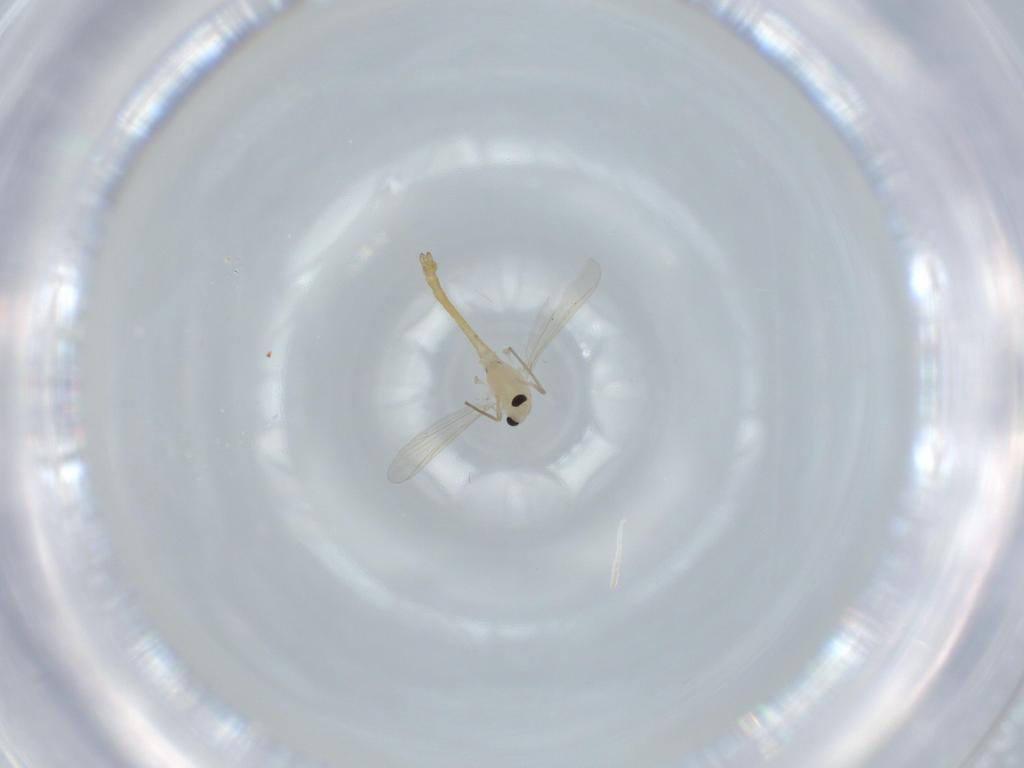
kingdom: Animalia
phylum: Arthropoda
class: Insecta
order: Diptera
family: Chironomidae
